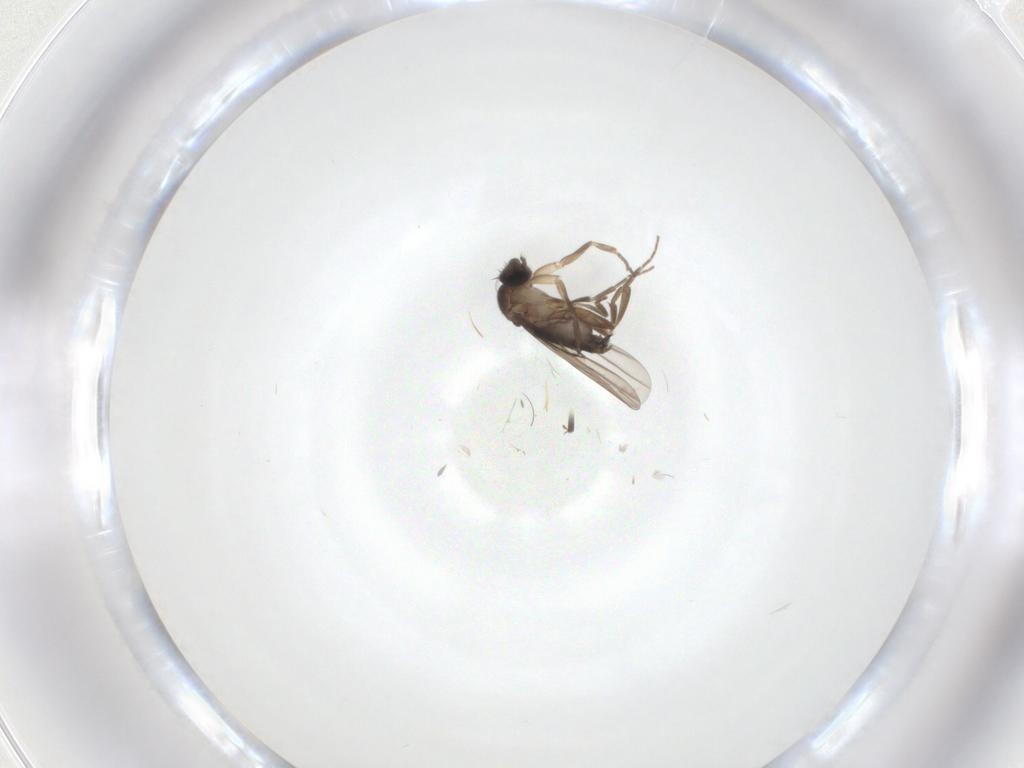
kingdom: Animalia
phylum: Arthropoda
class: Insecta
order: Diptera
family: Phoridae
